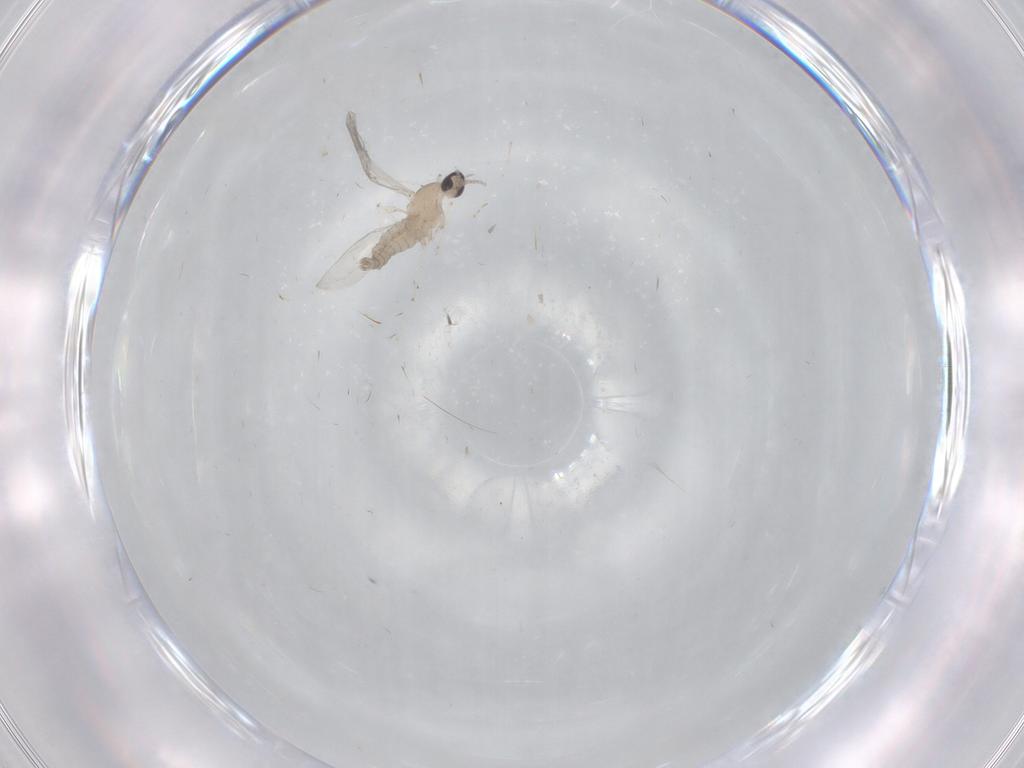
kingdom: Animalia
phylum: Arthropoda
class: Insecta
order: Diptera
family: Cecidomyiidae
